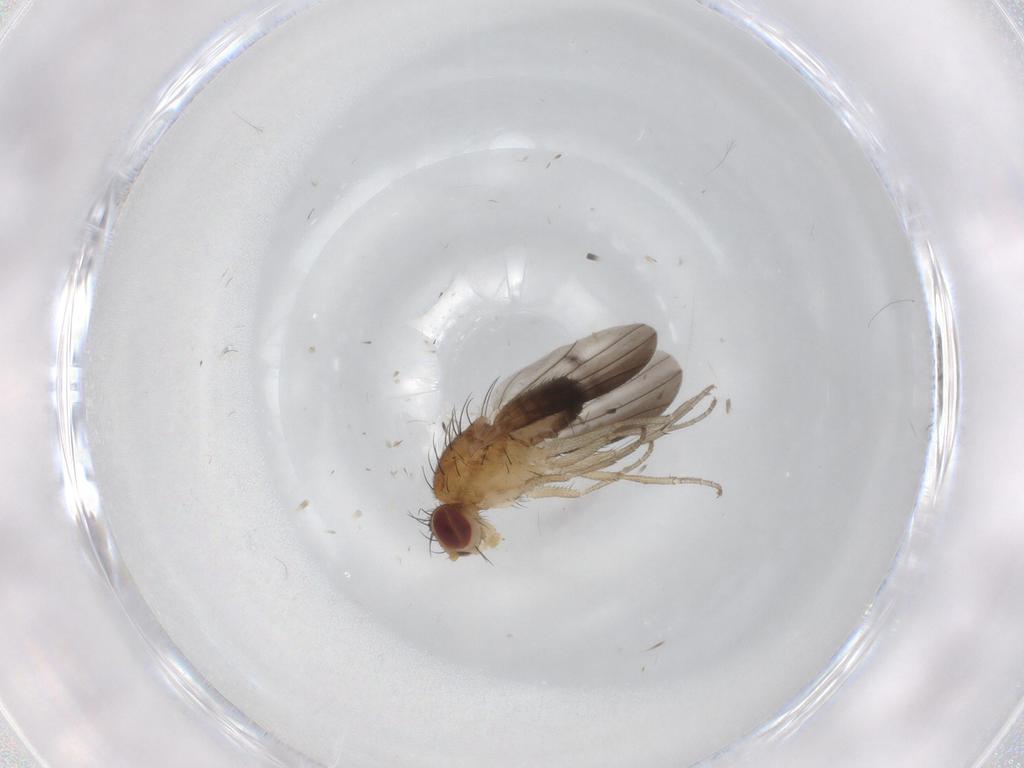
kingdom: Animalia
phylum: Arthropoda
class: Insecta
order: Diptera
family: Heleomyzidae
